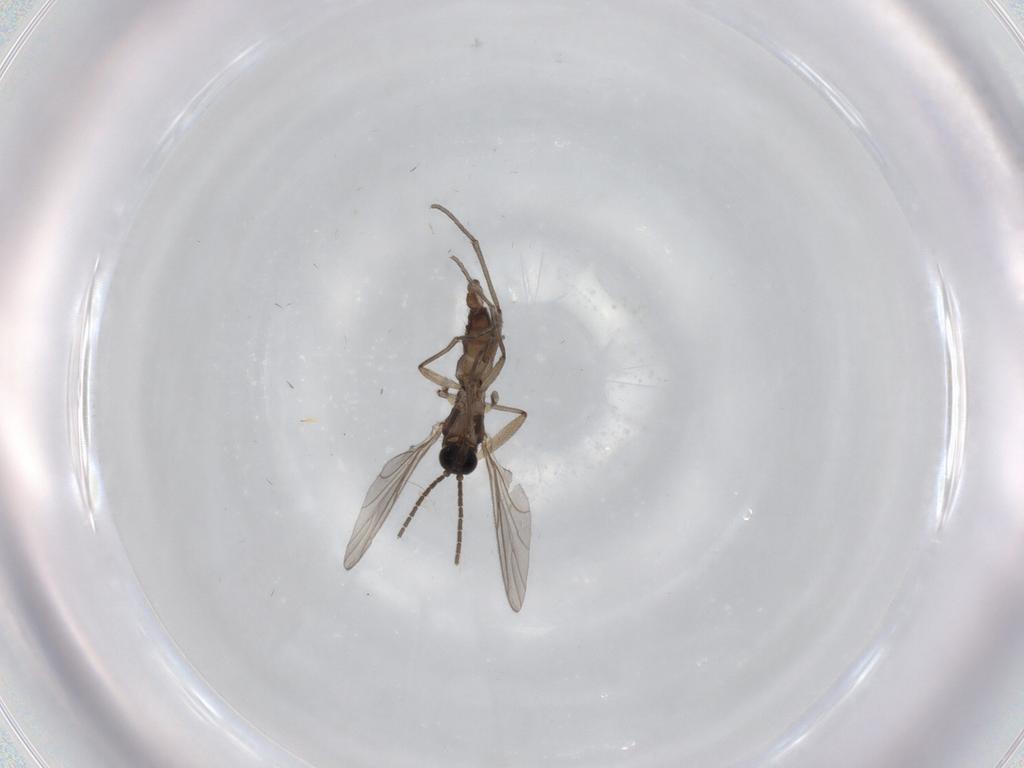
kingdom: Animalia
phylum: Arthropoda
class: Insecta
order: Diptera
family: Sciaridae
